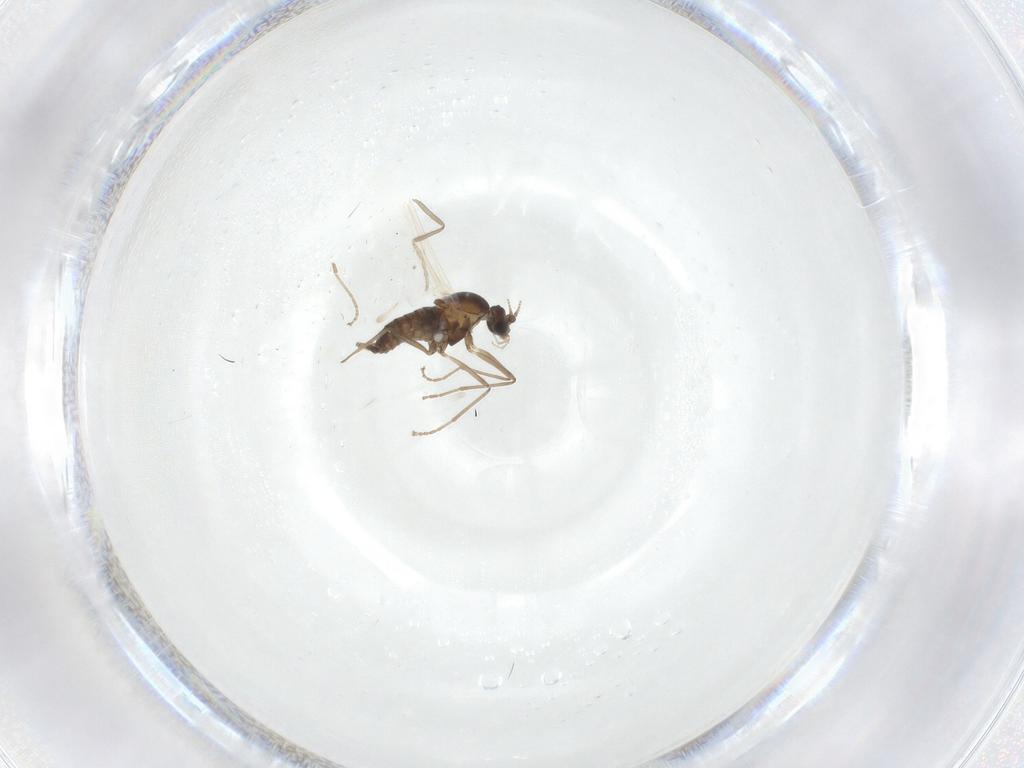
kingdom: Animalia
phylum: Arthropoda
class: Insecta
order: Diptera
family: Cecidomyiidae
